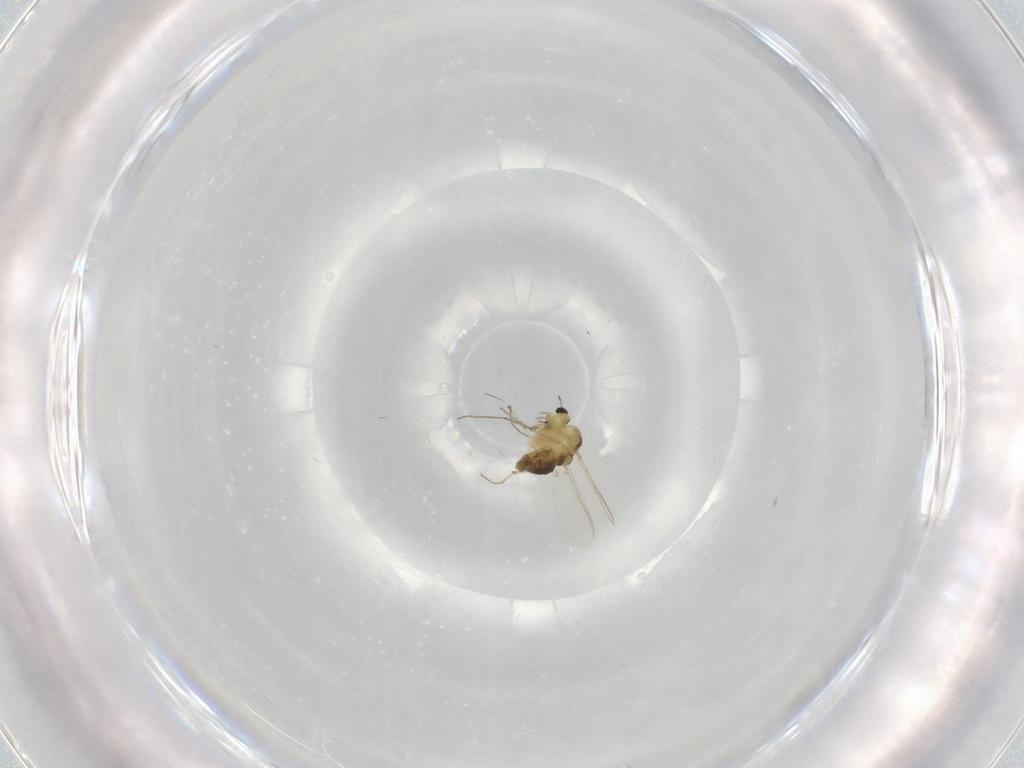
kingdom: Animalia
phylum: Arthropoda
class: Insecta
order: Diptera
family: Chironomidae
